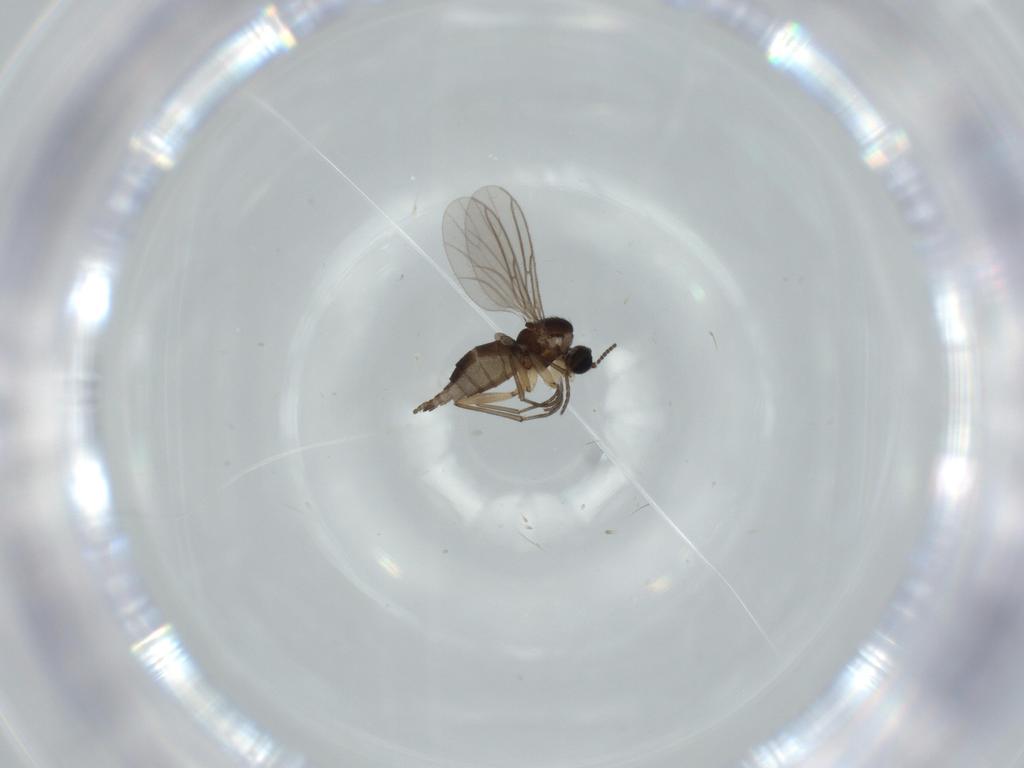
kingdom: Animalia
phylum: Arthropoda
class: Insecta
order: Diptera
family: Sciaridae
